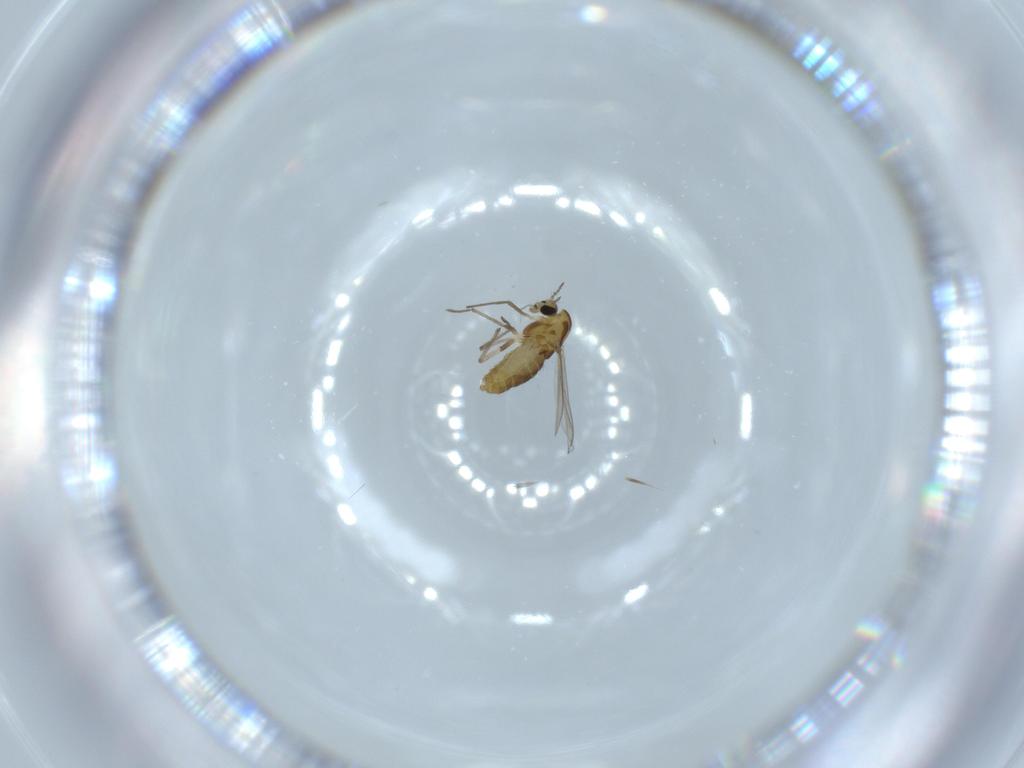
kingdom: Animalia
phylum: Arthropoda
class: Insecta
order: Diptera
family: Chironomidae
